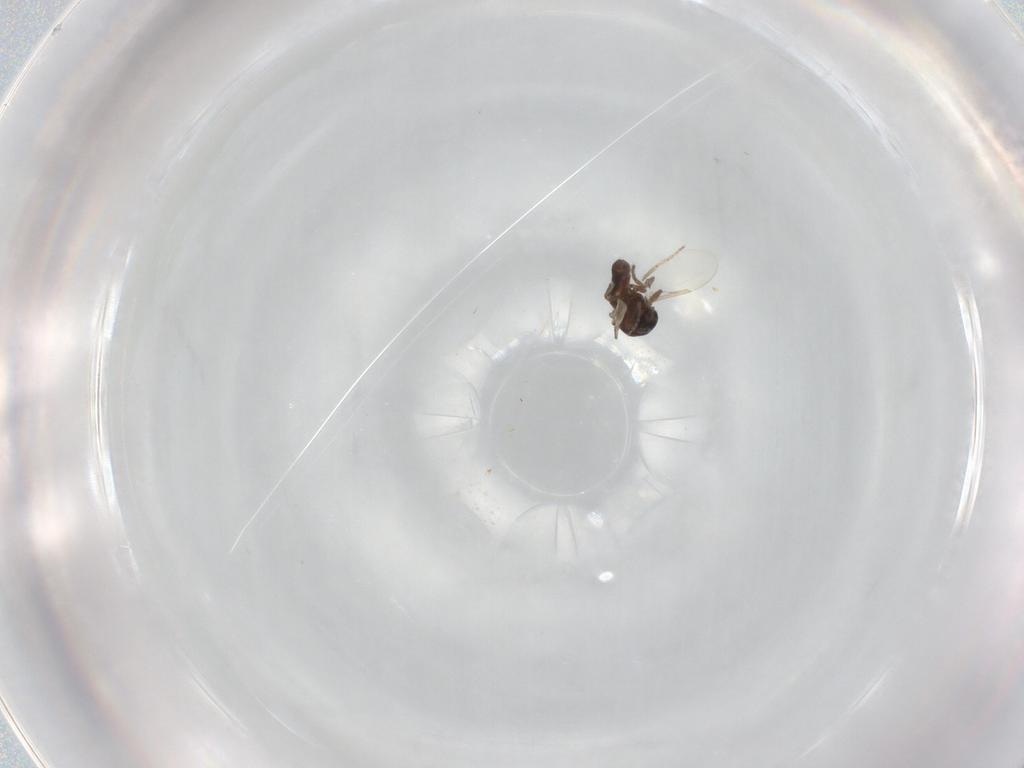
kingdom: Animalia
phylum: Arthropoda
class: Insecta
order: Diptera
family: Ceratopogonidae
